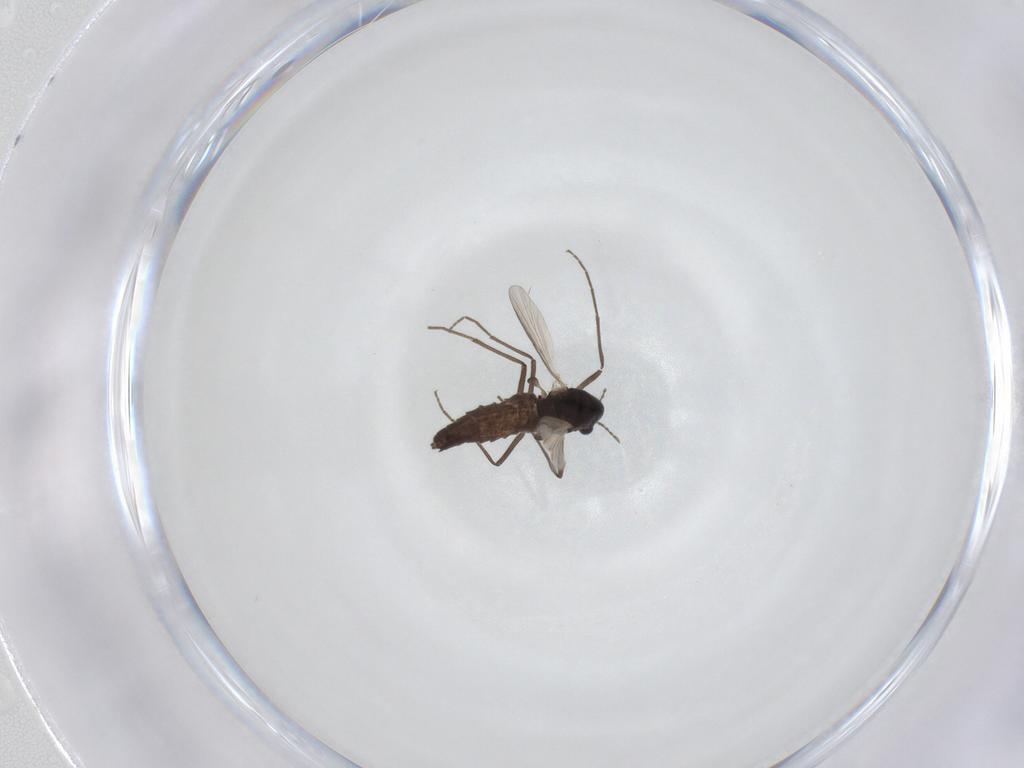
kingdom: Animalia
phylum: Arthropoda
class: Insecta
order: Diptera
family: Chironomidae
